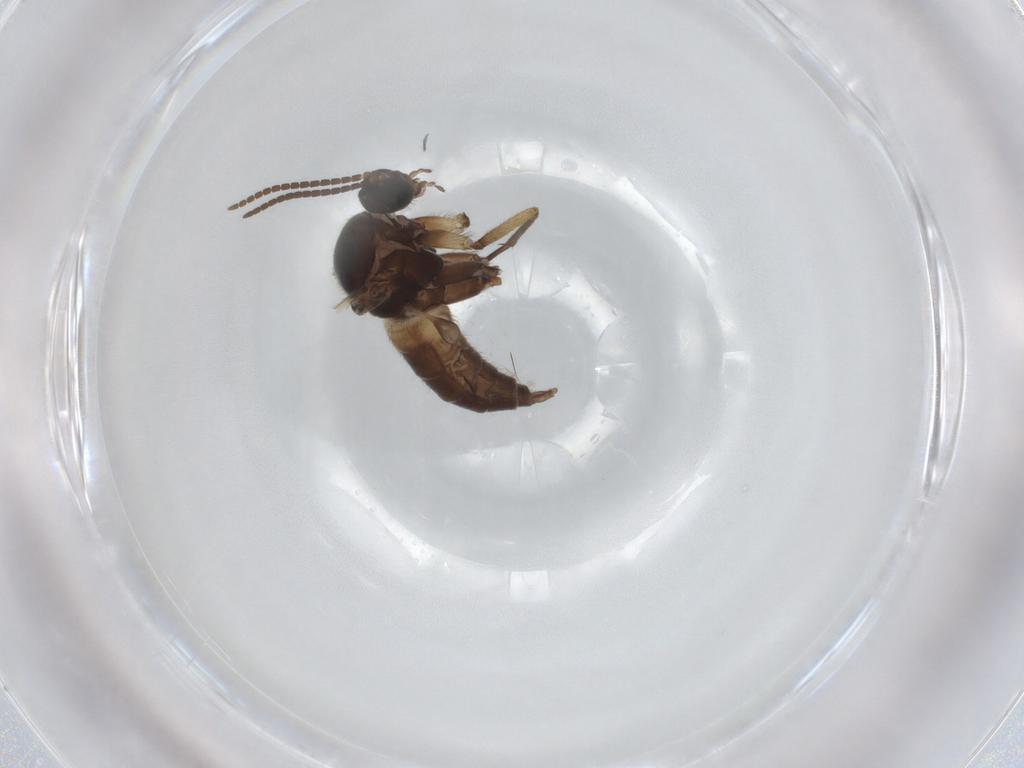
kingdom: Animalia
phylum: Arthropoda
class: Insecta
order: Diptera
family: Sciaridae
